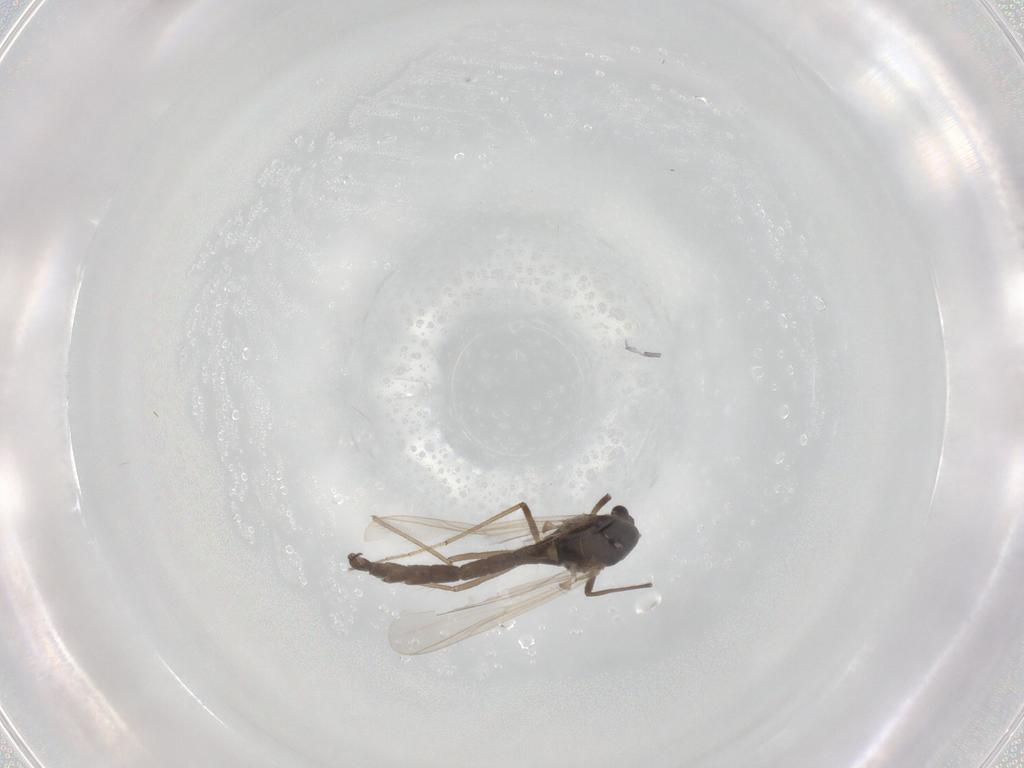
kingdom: Animalia
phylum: Arthropoda
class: Insecta
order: Diptera
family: Chironomidae
